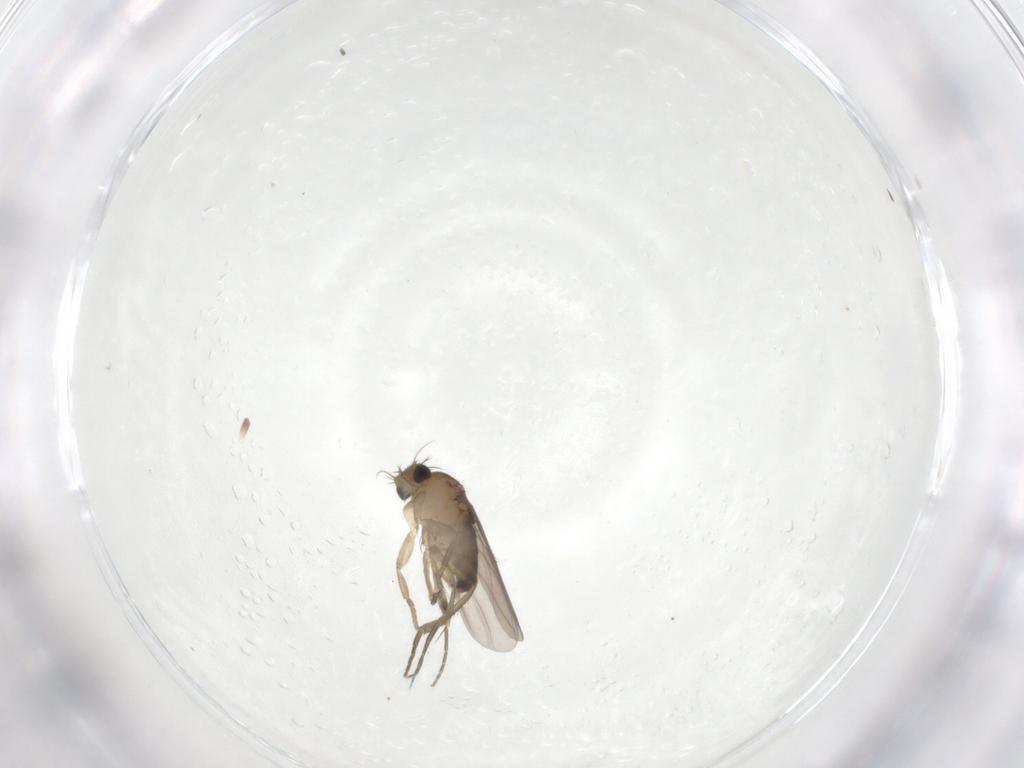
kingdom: Animalia
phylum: Arthropoda
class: Insecta
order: Diptera
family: Phoridae
